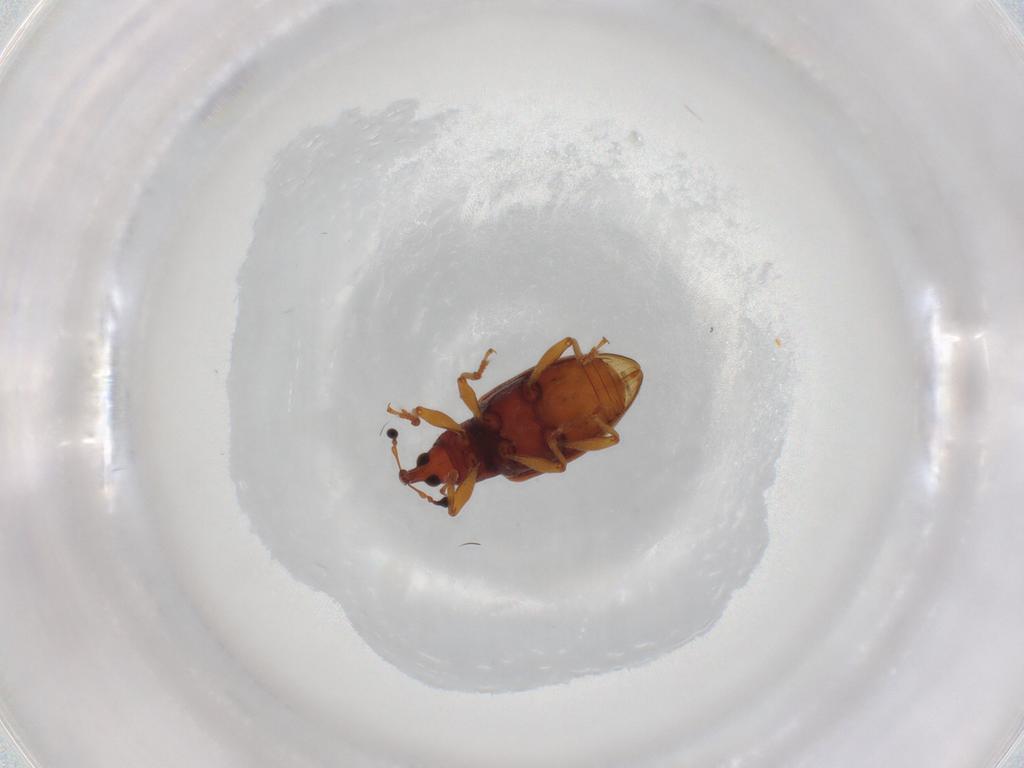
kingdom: Animalia
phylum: Arthropoda
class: Insecta
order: Coleoptera
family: Curculionidae
